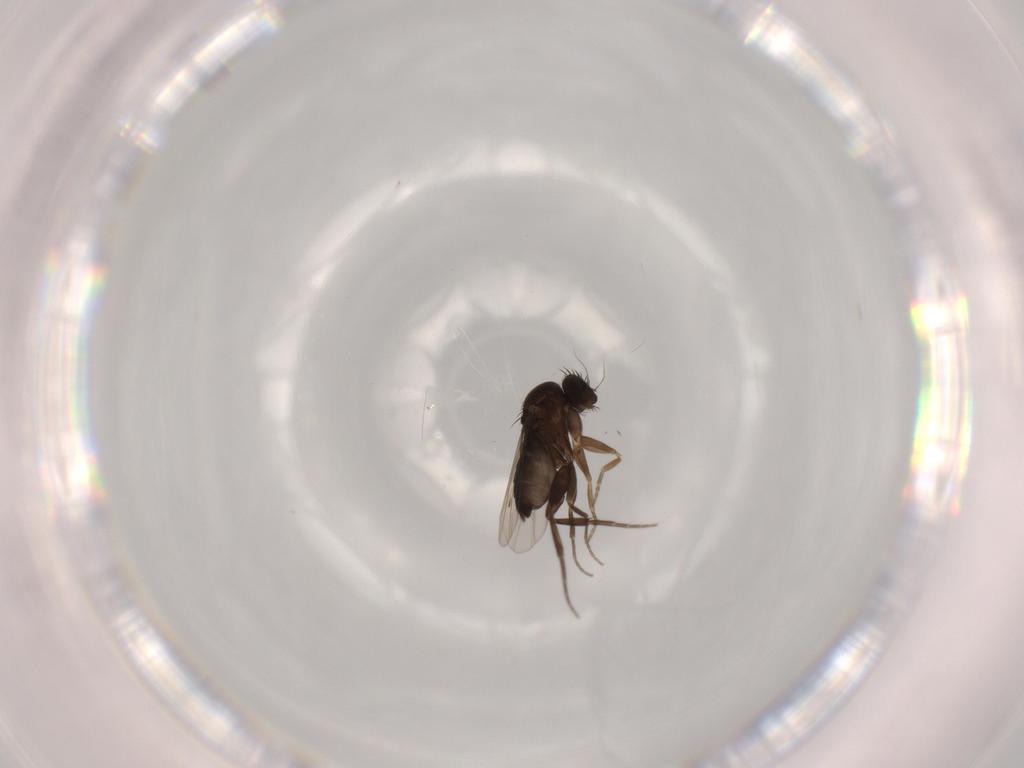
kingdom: Animalia
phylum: Arthropoda
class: Insecta
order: Diptera
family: Phoridae
